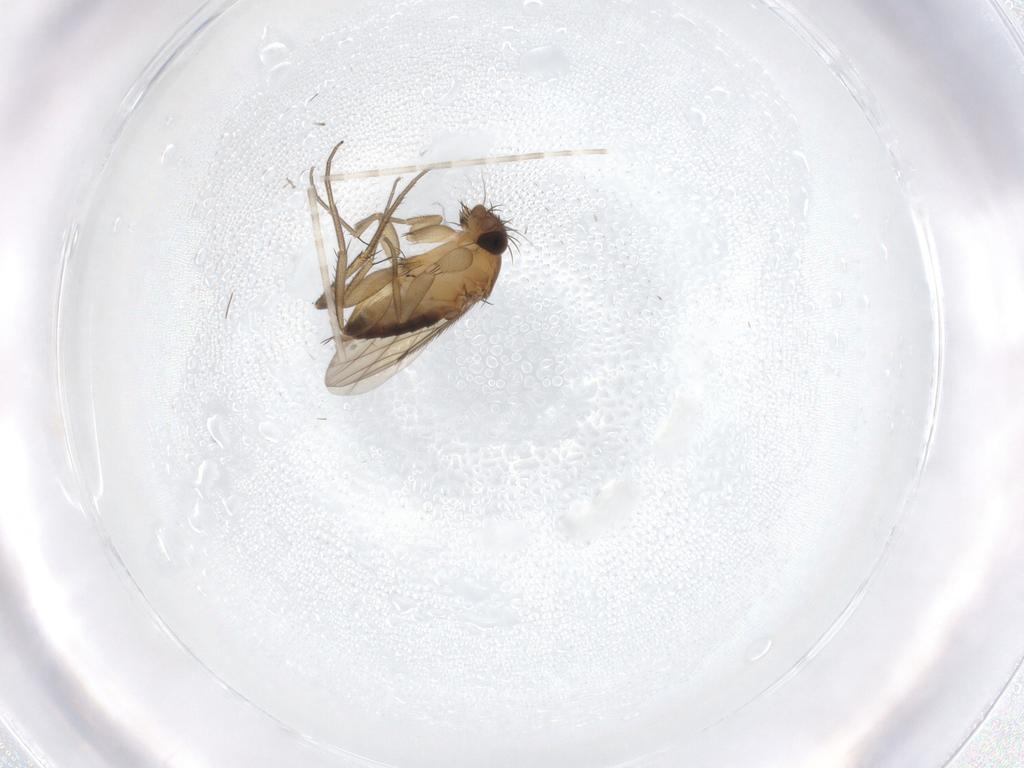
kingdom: Animalia
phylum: Arthropoda
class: Insecta
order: Diptera
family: Phoridae
